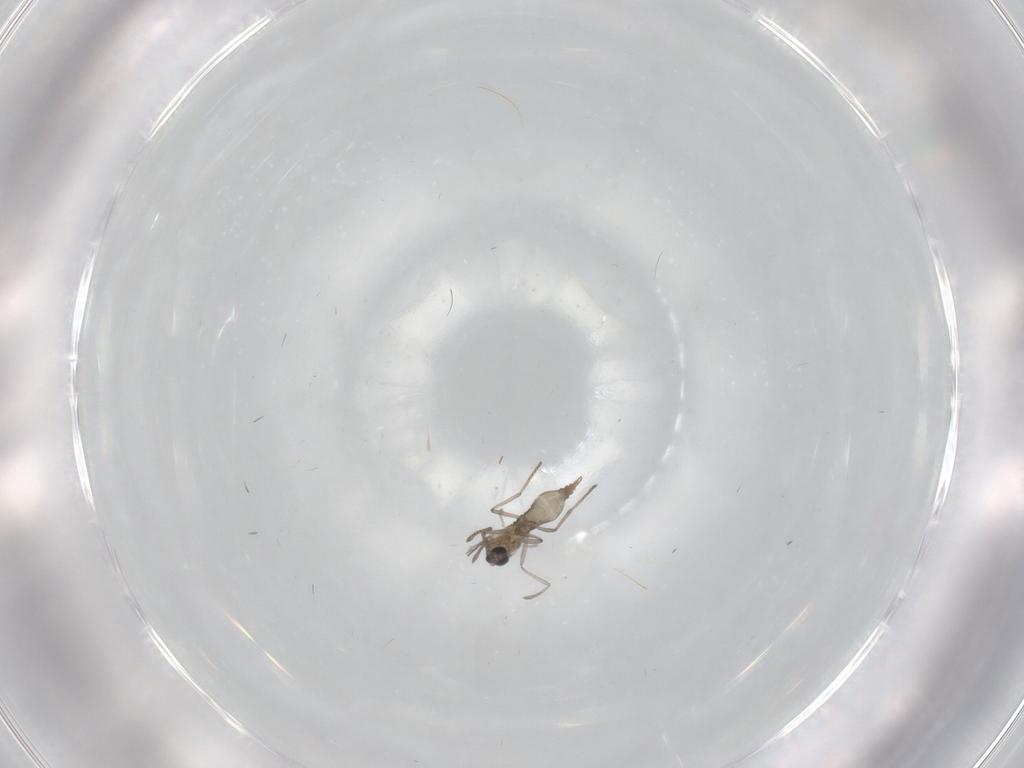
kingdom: Animalia
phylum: Arthropoda
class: Insecta
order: Diptera
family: Cecidomyiidae
